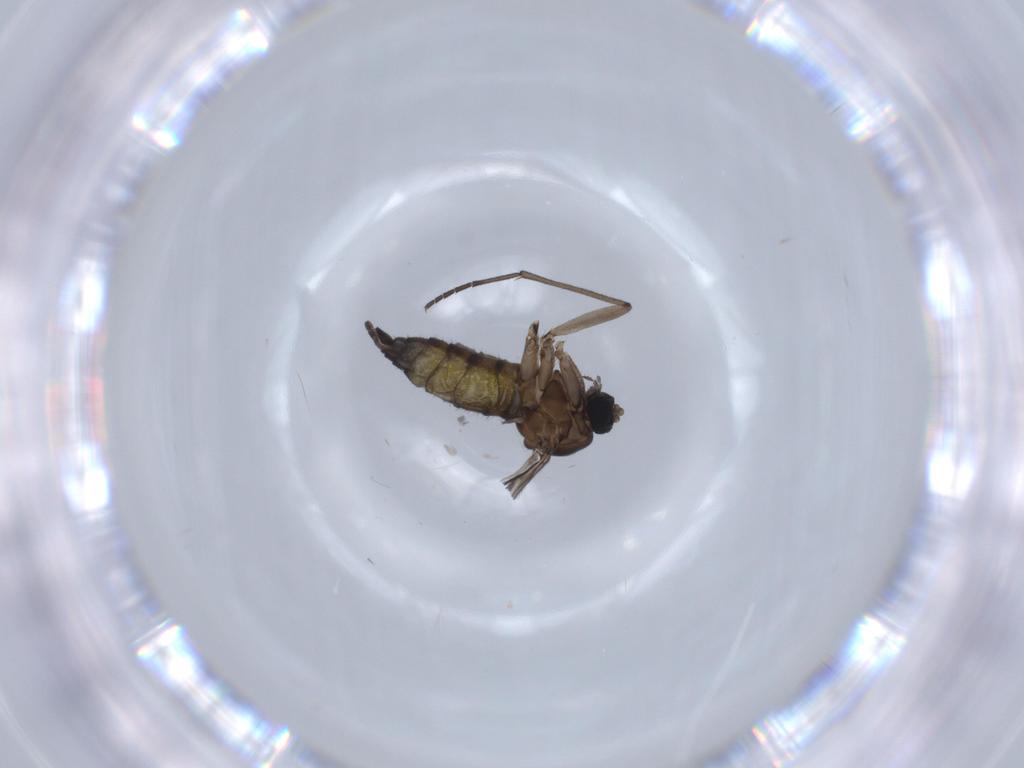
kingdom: Animalia
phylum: Arthropoda
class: Insecta
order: Diptera
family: Sciaridae
